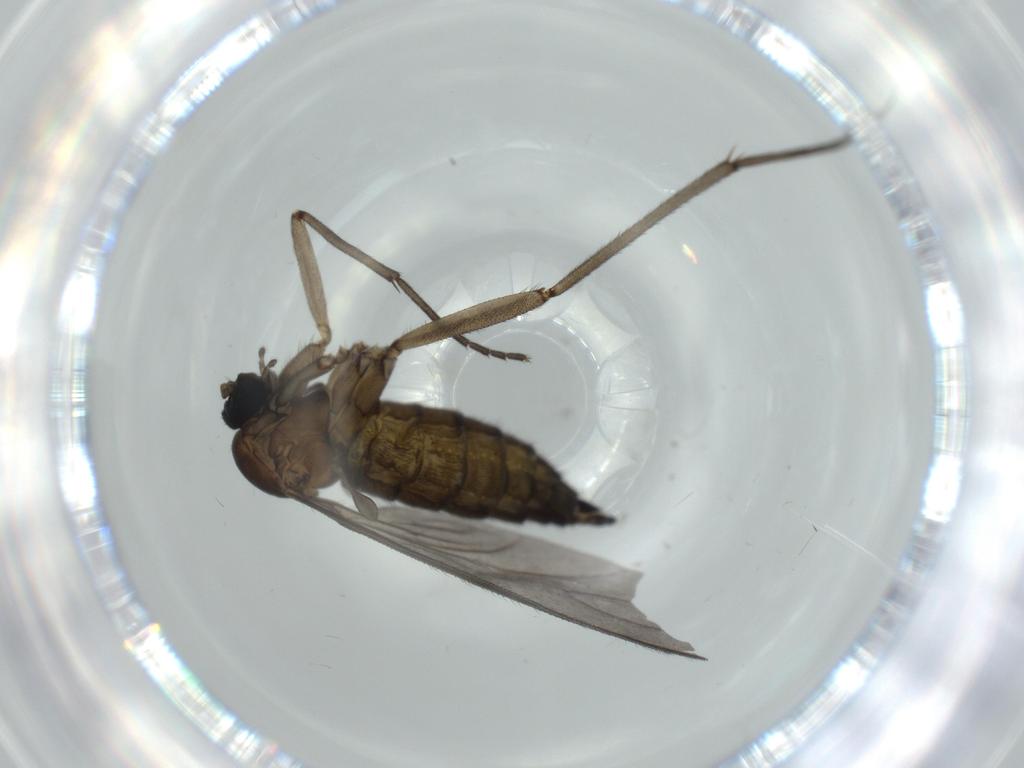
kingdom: Animalia
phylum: Arthropoda
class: Insecta
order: Diptera
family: Sciaridae
